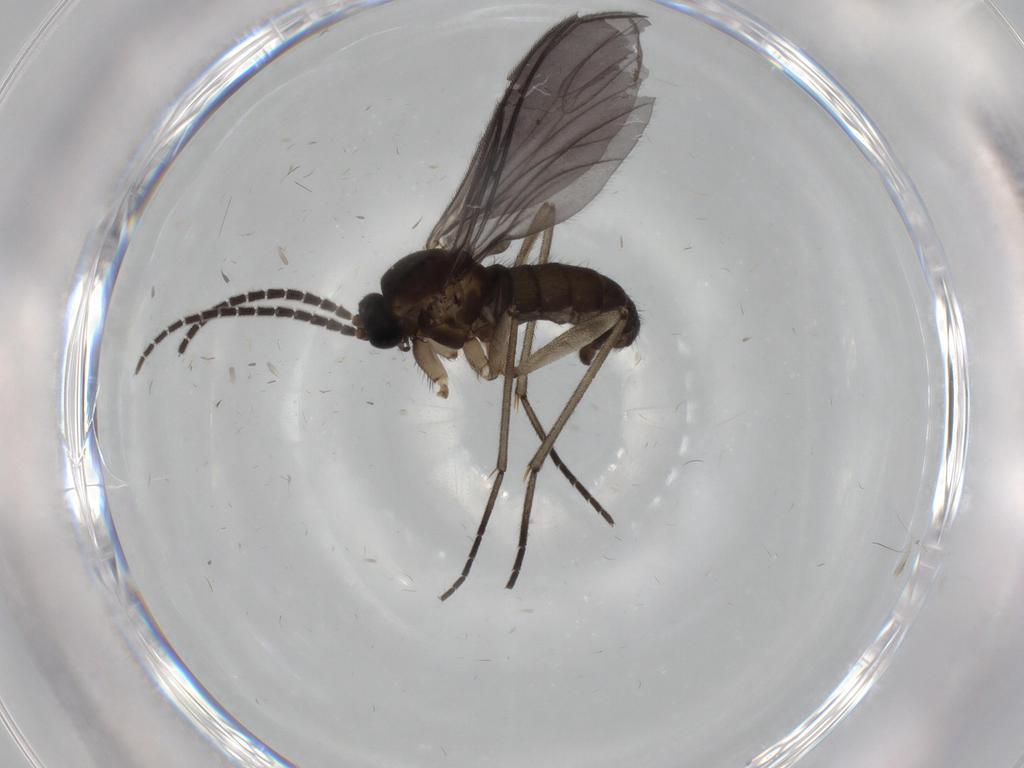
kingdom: Animalia
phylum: Arthropoda
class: Insecta
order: Diptera
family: Sciaridae
